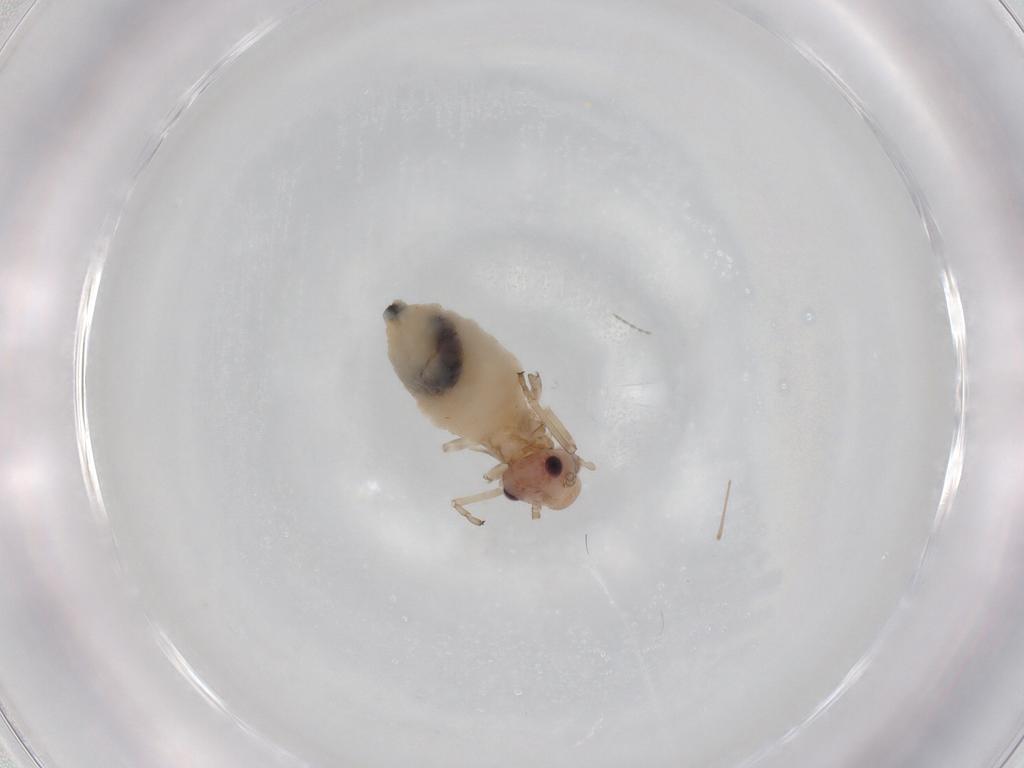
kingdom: Animalia
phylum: Arthropoda
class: Insecta
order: Psocodea
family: Stenopsocidae
